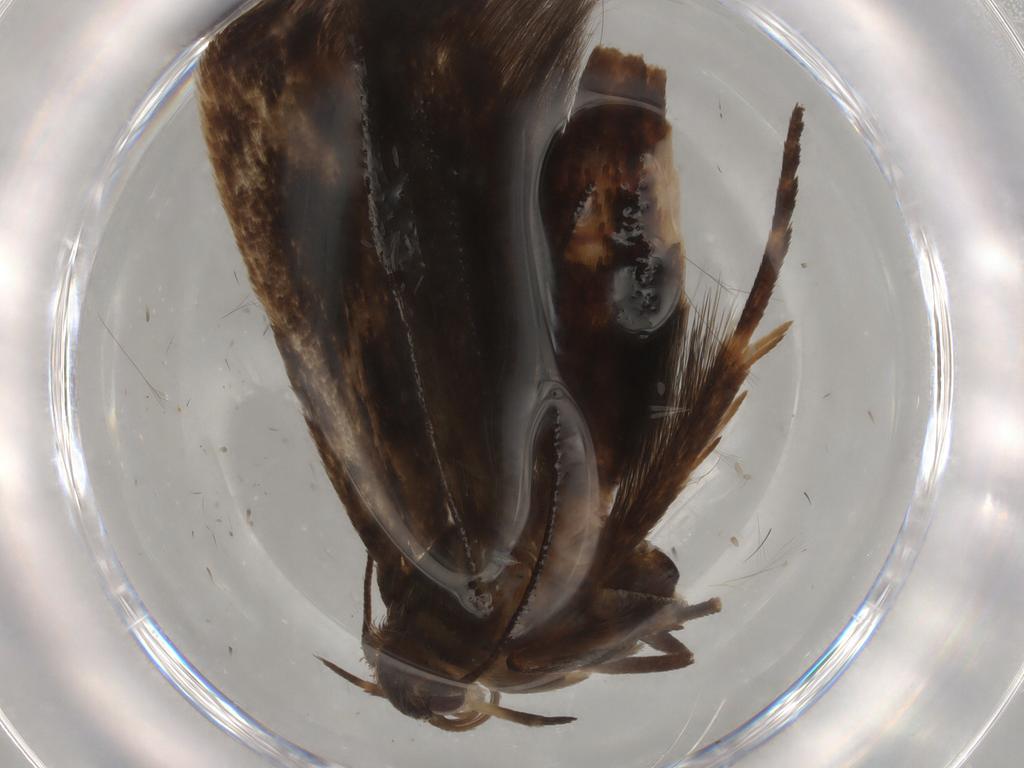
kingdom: Animalia
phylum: Arthropoda
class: Insecta
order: Lepidoptera
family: Scythrididae
